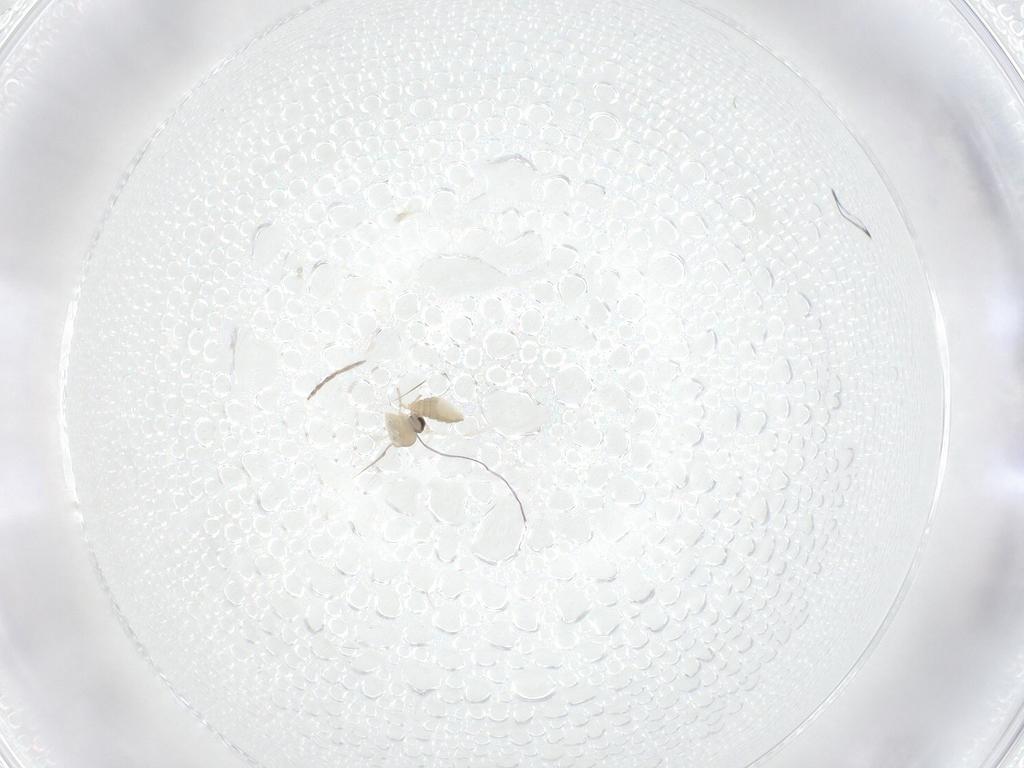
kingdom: Animalia
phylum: Arthropoda
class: Insecta
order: Diptera
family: Cecidomyiidae
